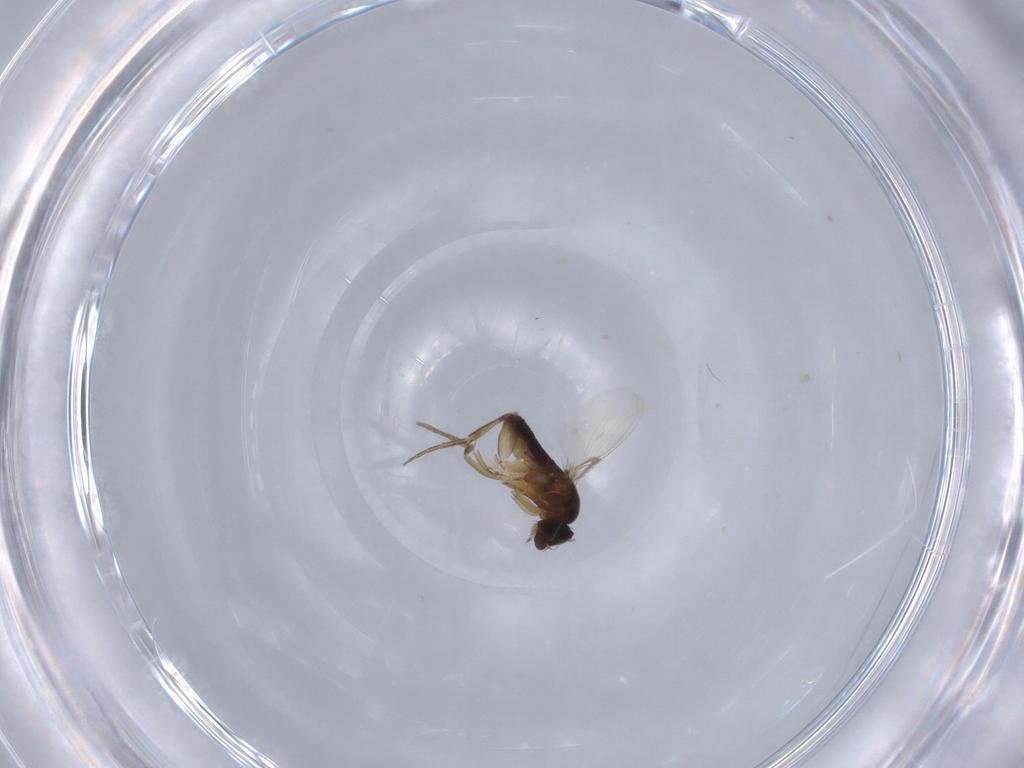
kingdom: Animalia
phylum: Arthropoda
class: Insecta
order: Diptera
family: Phoridae
